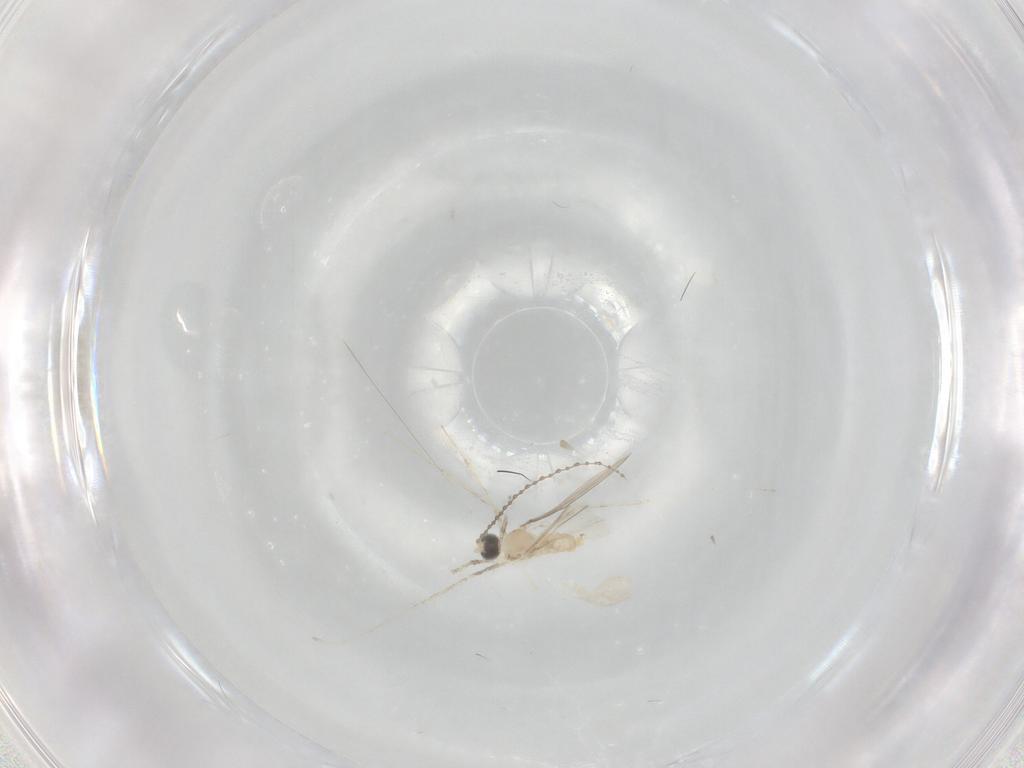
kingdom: Animalia
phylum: Arthropoda
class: Insecta
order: Diptera
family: Cecidomyiidae
